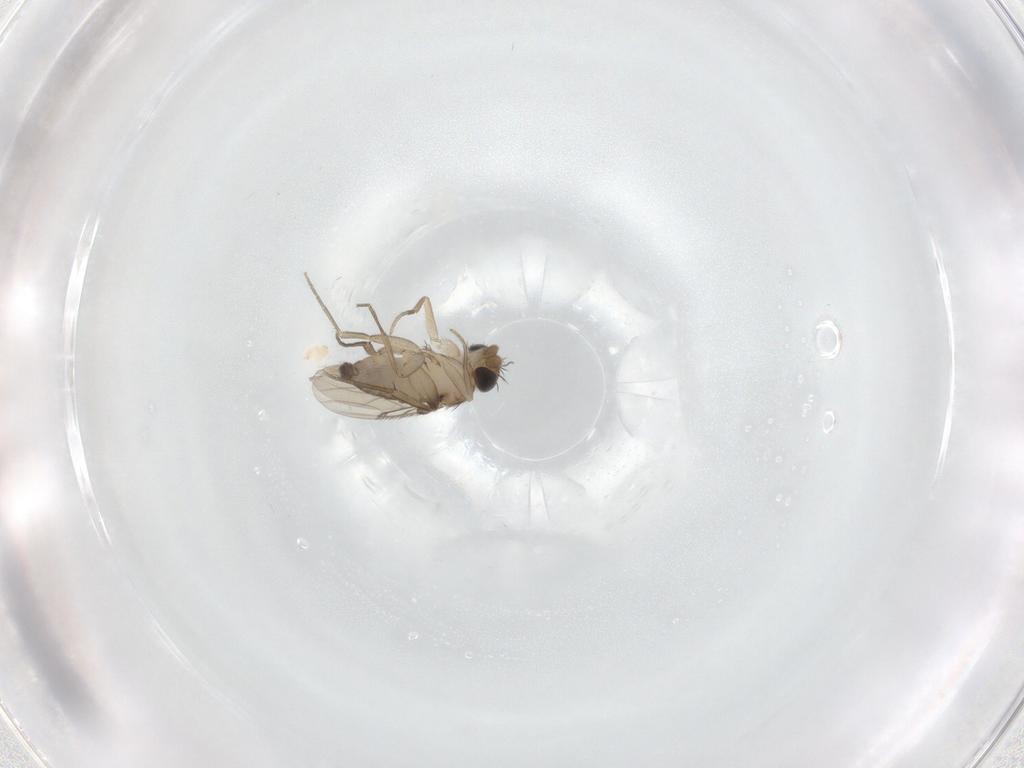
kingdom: Animalia
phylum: Arthropoda
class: Insecta
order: Diptera
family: Phoridae
